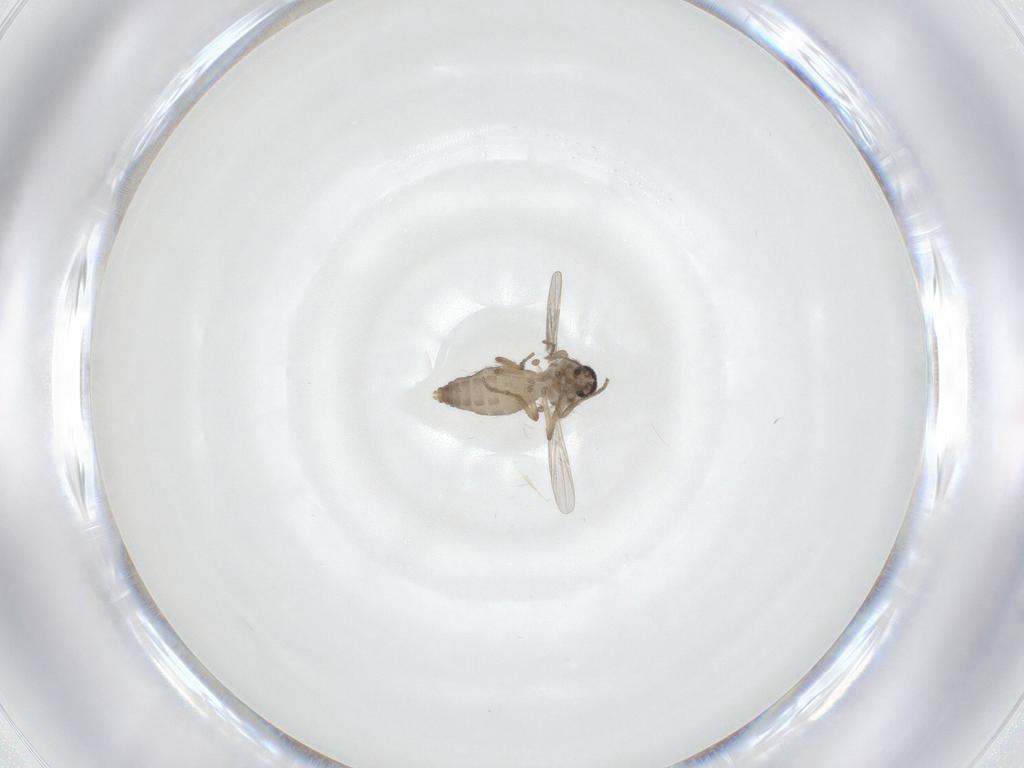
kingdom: Animalia
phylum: Arthropoda
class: Insecta
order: Diptera
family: Ceratopogonidae
